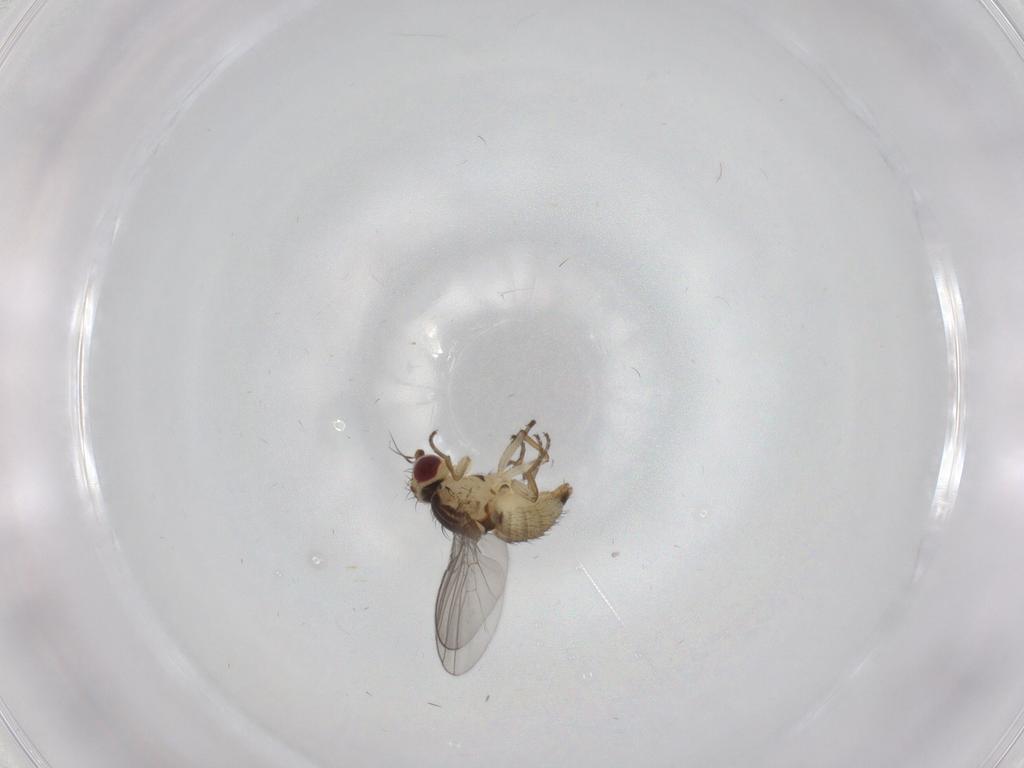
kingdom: Animalia
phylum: Arthropoda
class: Insecta
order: Diptera
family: Agromyzidae
